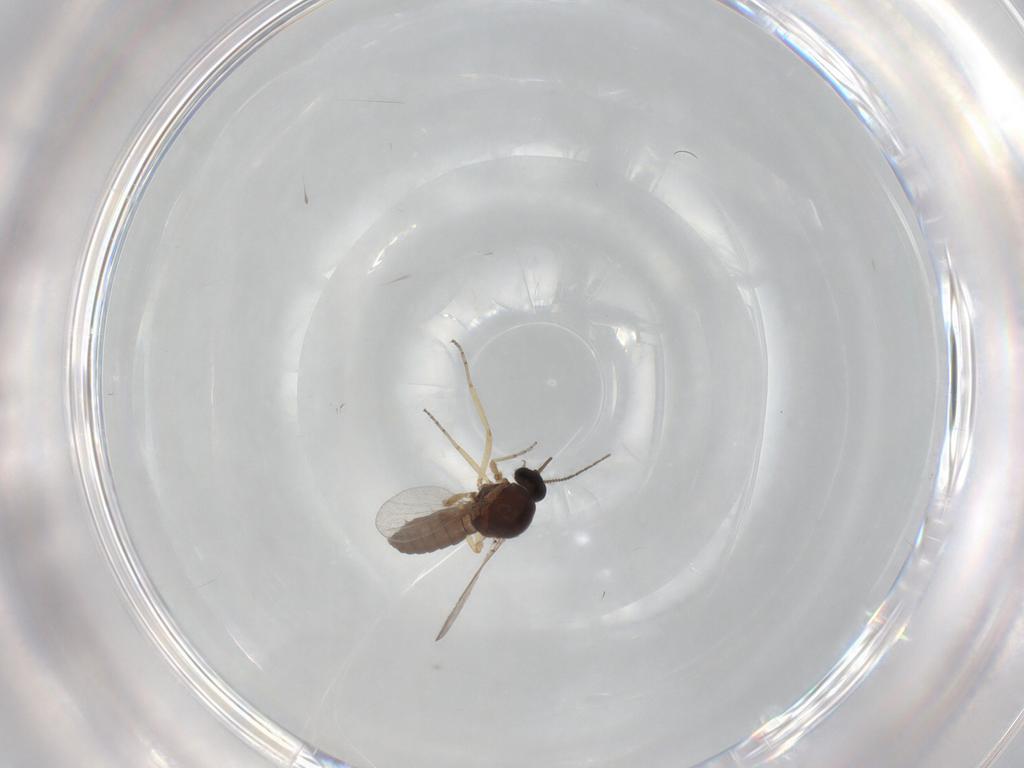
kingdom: Animalia
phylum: Arthropoda
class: Insecta
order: Diptera
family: Ceratopogonidae
